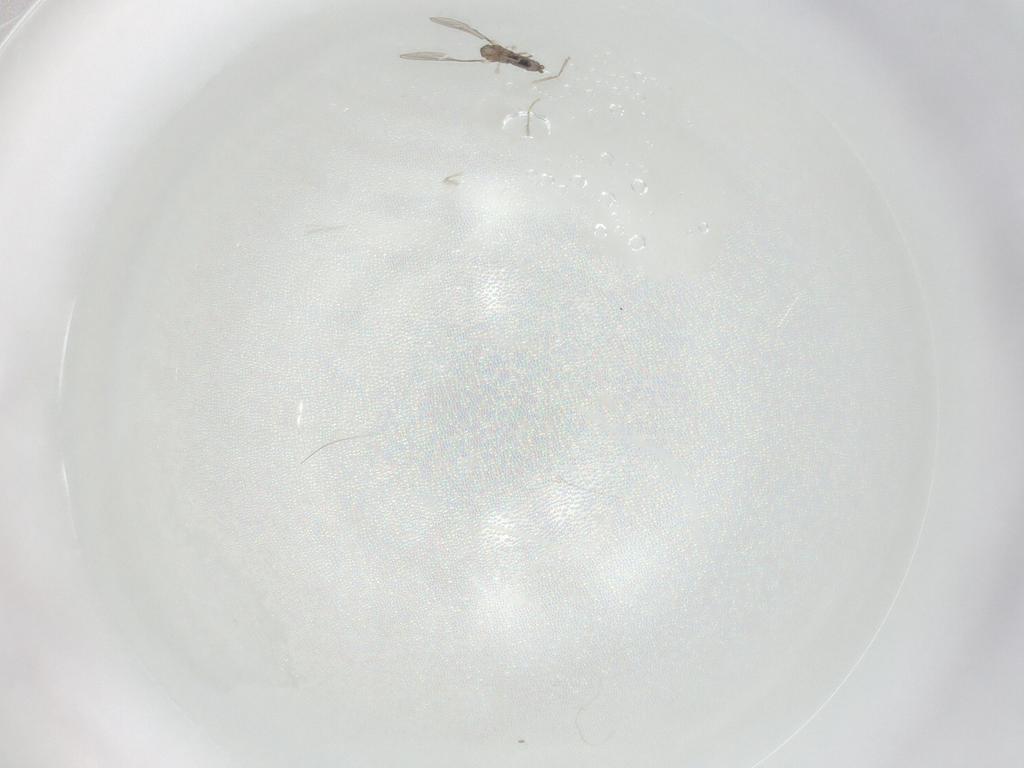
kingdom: Animalia
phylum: Arthropoda
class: Insecta
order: Diptera
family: Cecidomyiidae
